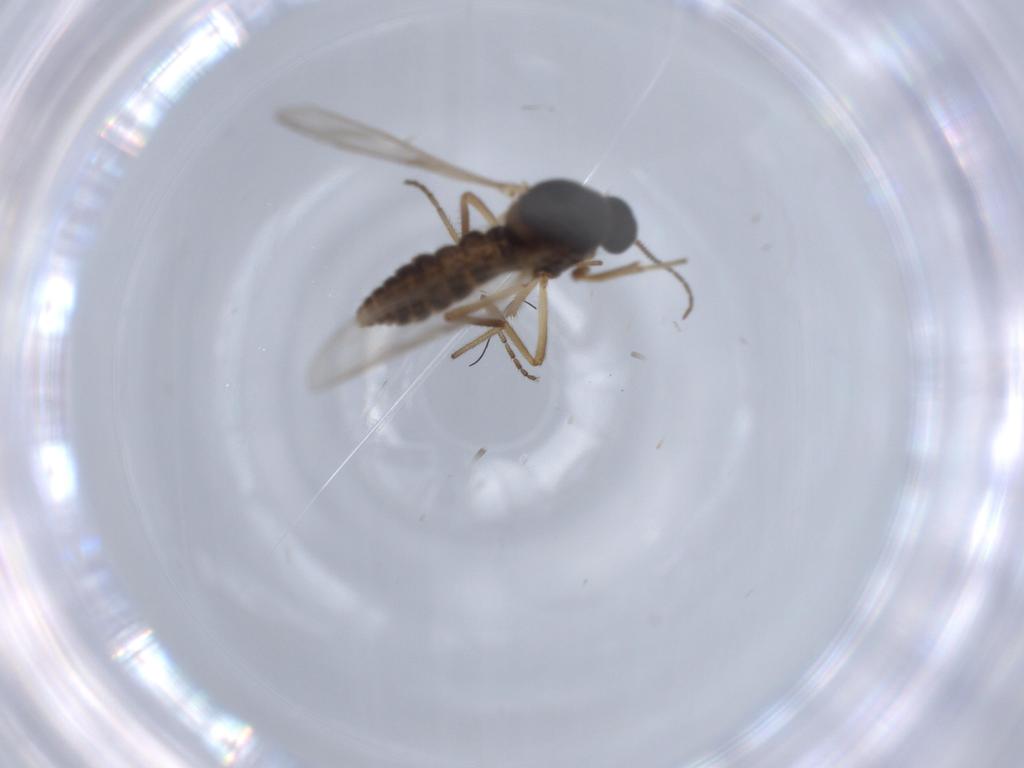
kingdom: Animalia
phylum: Arthropoda
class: Insecta
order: Diptera
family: Ceratopogonidae
